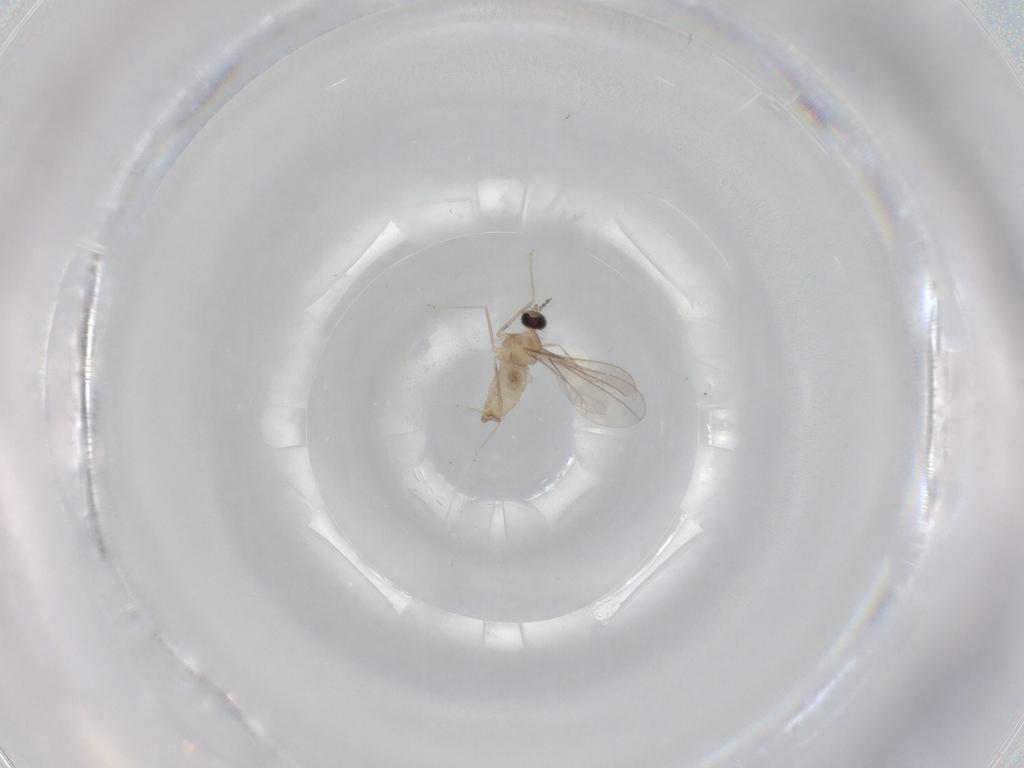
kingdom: Animalia
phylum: Arthropoda
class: Insecta
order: Diptera
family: Cecidomyiidae
